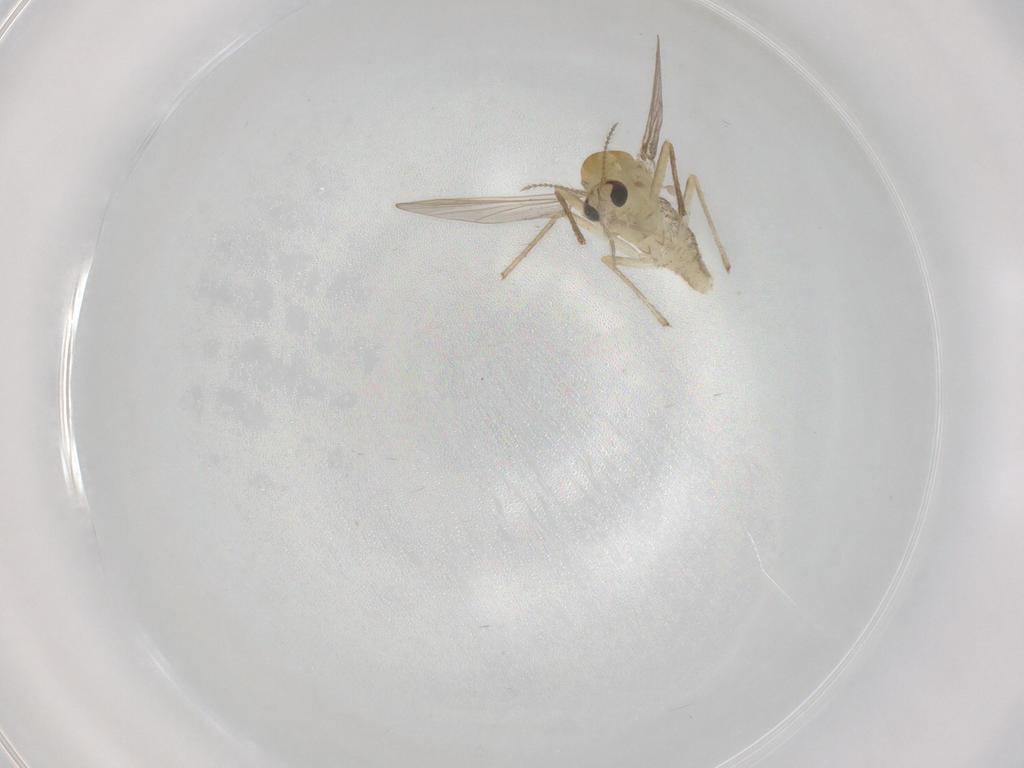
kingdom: Animalia
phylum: Arthropoda
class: Insecta
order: Diptera
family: Chironomidae
